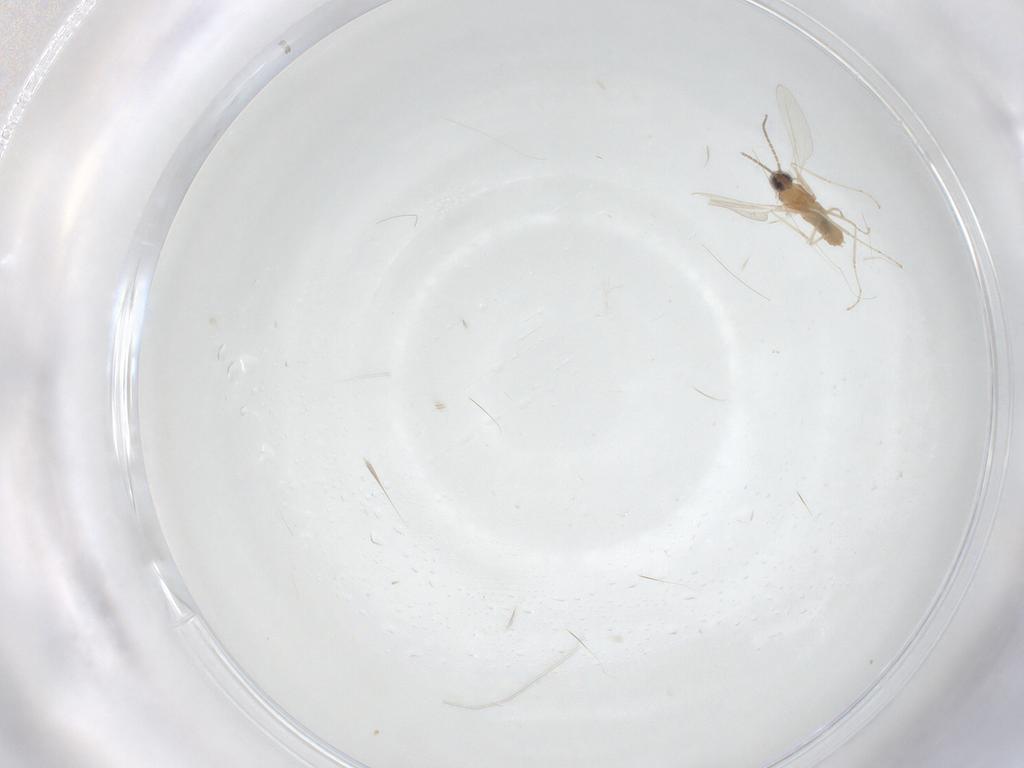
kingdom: Animalia
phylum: Arthropoda
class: Insecta
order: Diptera
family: Cecidomyiidae
